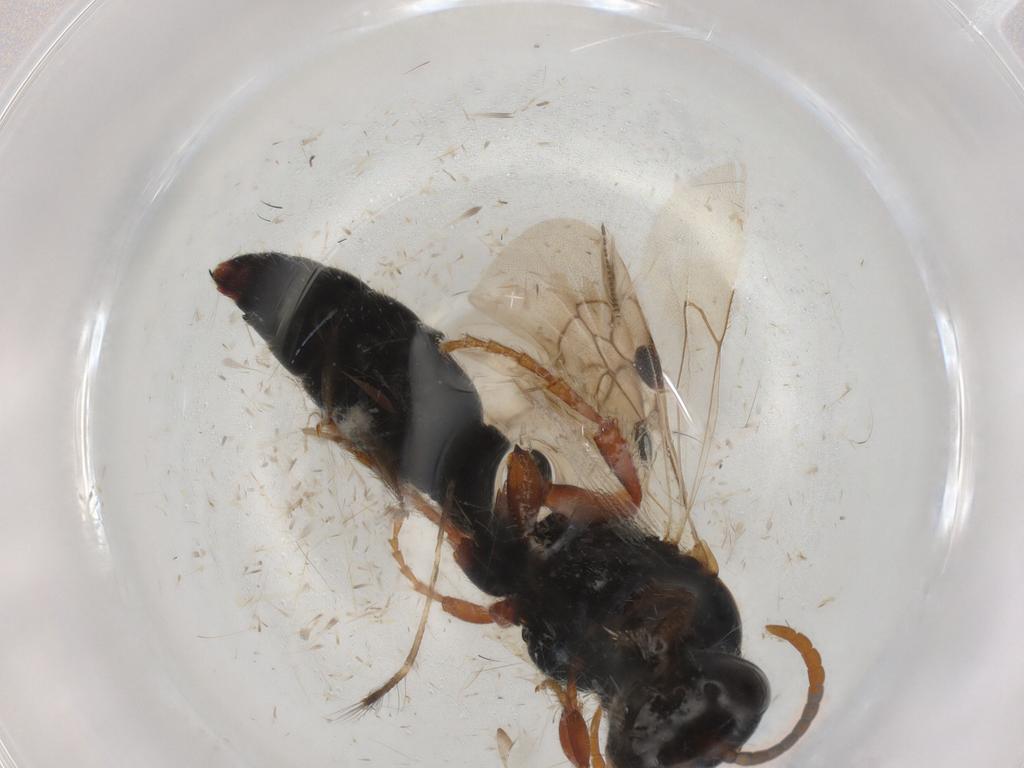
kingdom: Animalia
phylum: Arthropoda
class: Insecta
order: Hymenoptera
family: Tiphiidae
